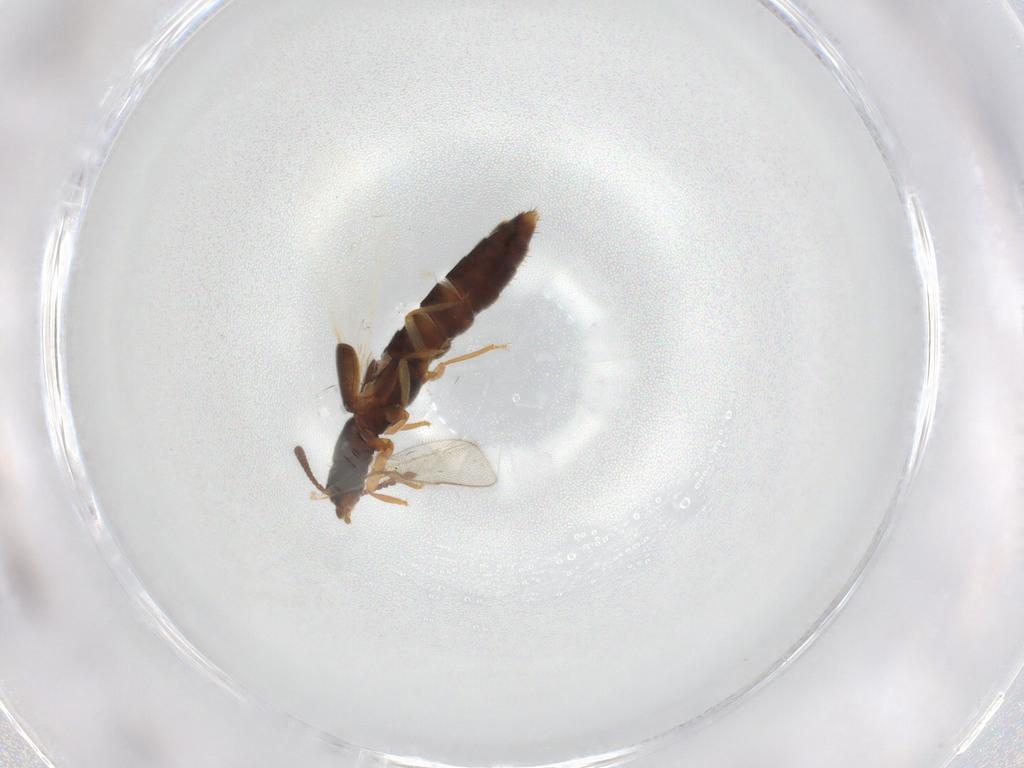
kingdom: Animalia
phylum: Arthropoda
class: Insecta
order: Coleoptera
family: Staphylinidae
